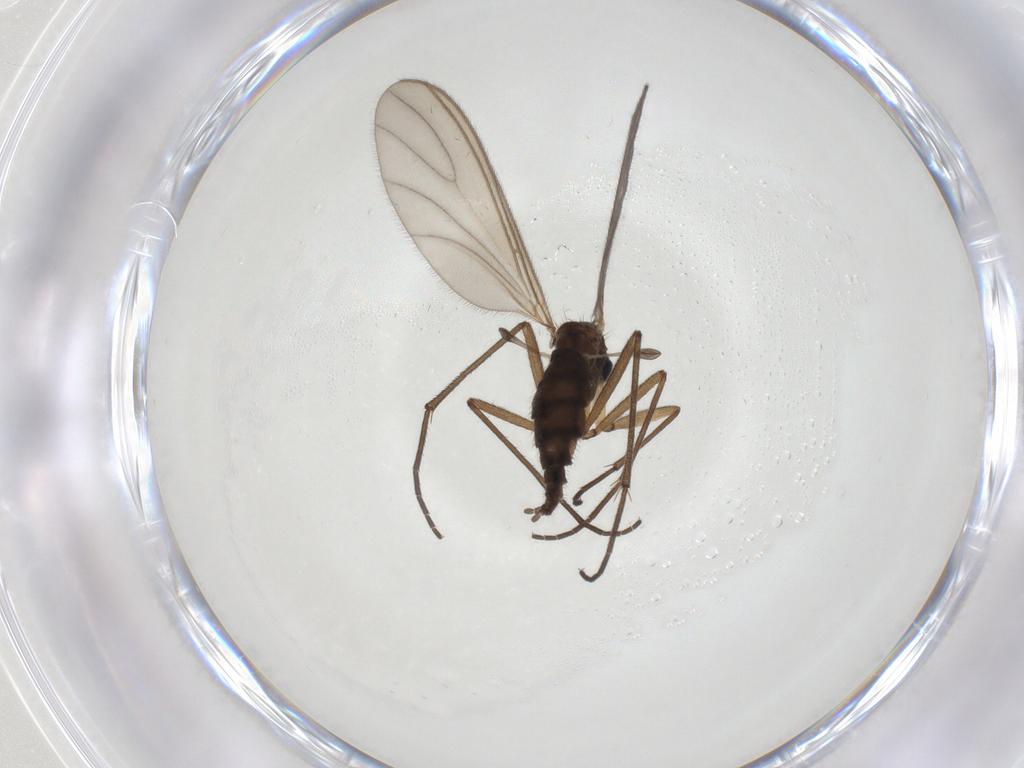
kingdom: Animalia
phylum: Arthropoda
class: Insecta
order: Diptera
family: Sciaridae
